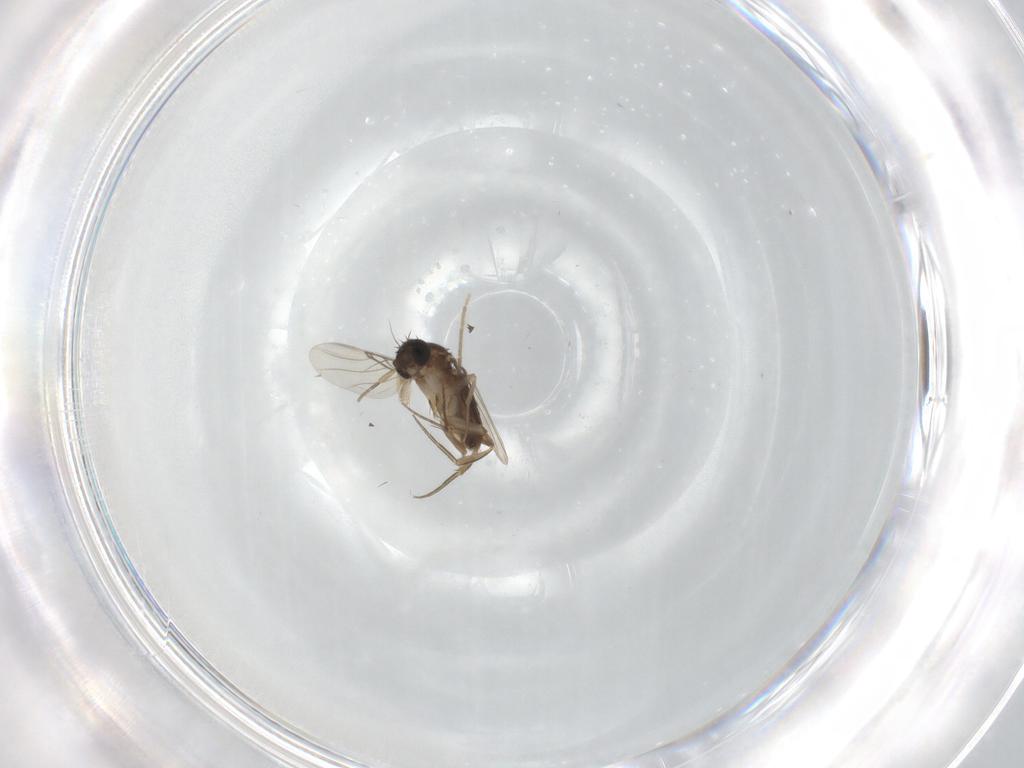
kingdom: Animalia
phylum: Arthropoda
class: Insecta
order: Diptera
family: Phoridae
